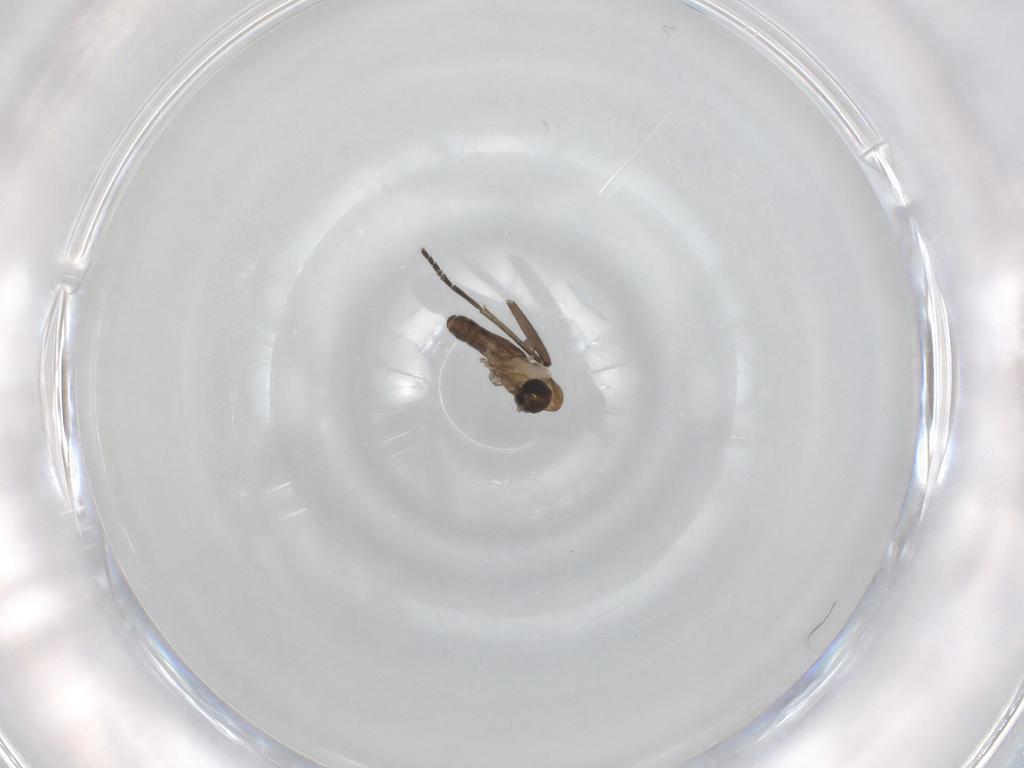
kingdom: Animalia
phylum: Arthropoda
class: Insecta
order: Diptera
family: Psychodidae
